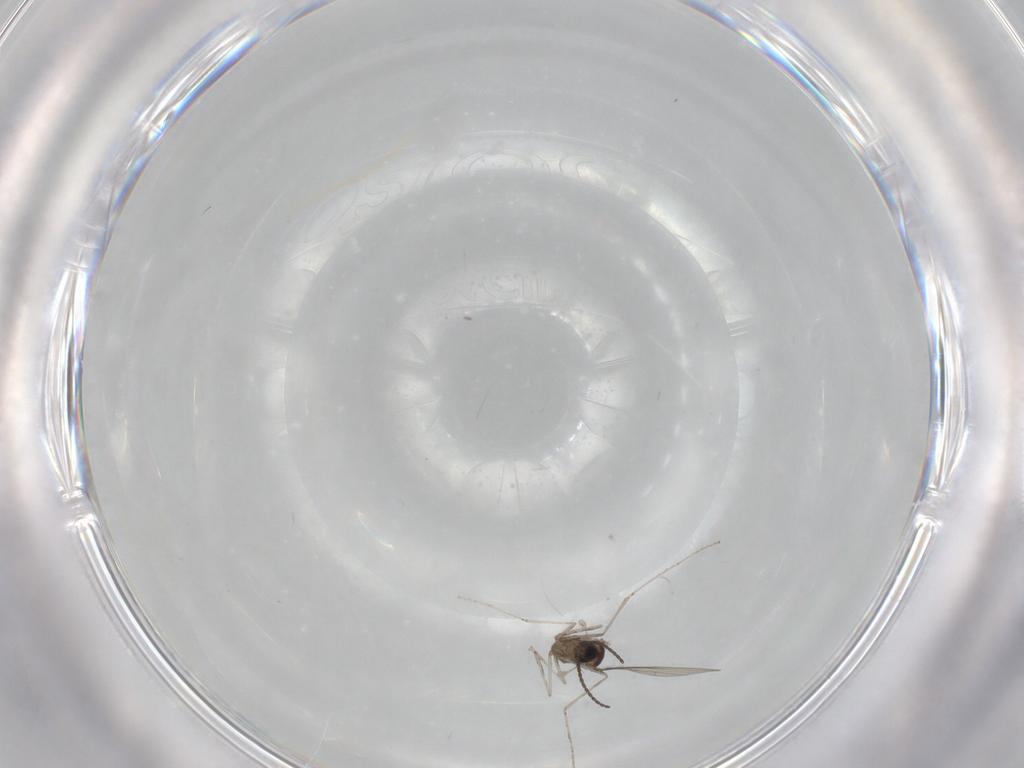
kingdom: Animalia
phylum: Arthropoda
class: Insecta
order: Diptera
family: Cecidomyiidae
